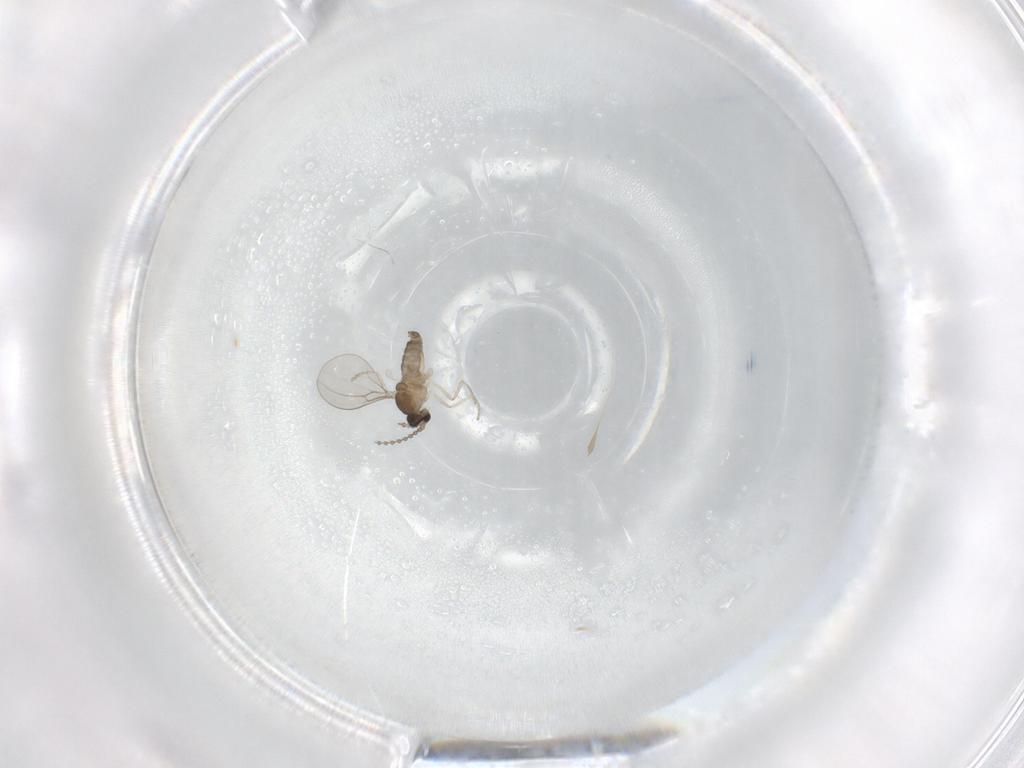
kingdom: Animalia
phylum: Arthropoda
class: Insecta
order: Diptera
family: Cecidomyiidae
